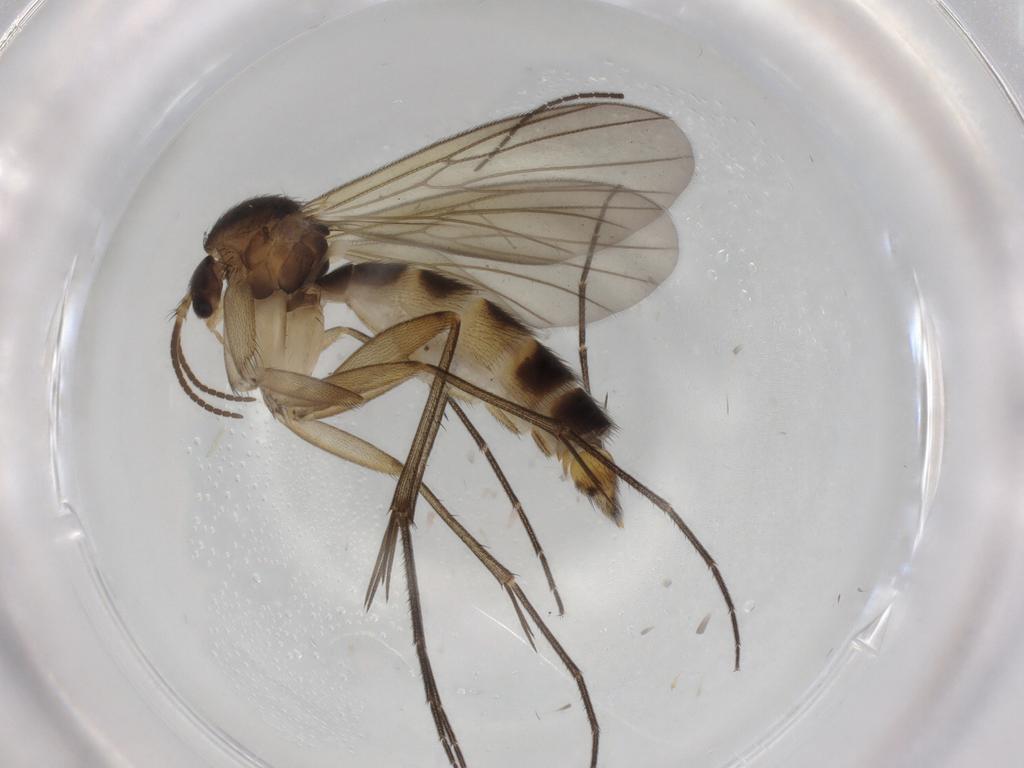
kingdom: Animalia
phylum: Arthropoda
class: Insecta
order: Diptera
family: Mycetophilidae
